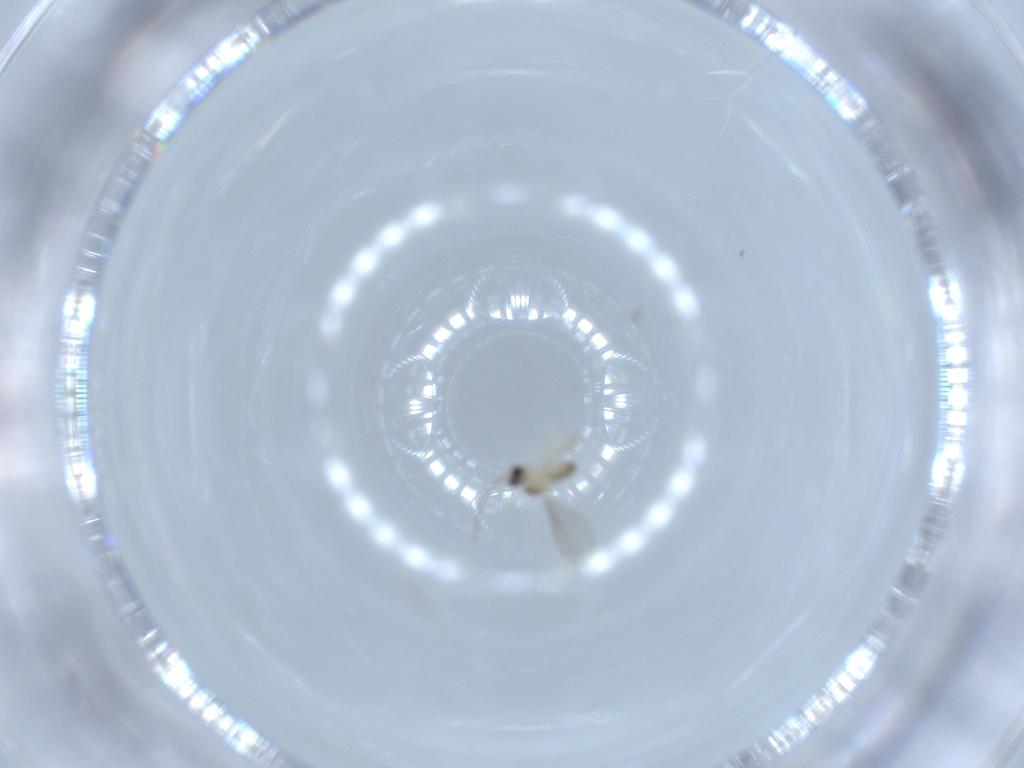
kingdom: Animalia
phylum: Arthropoda
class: Insecta
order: Diptera
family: Cecidomyiidae
